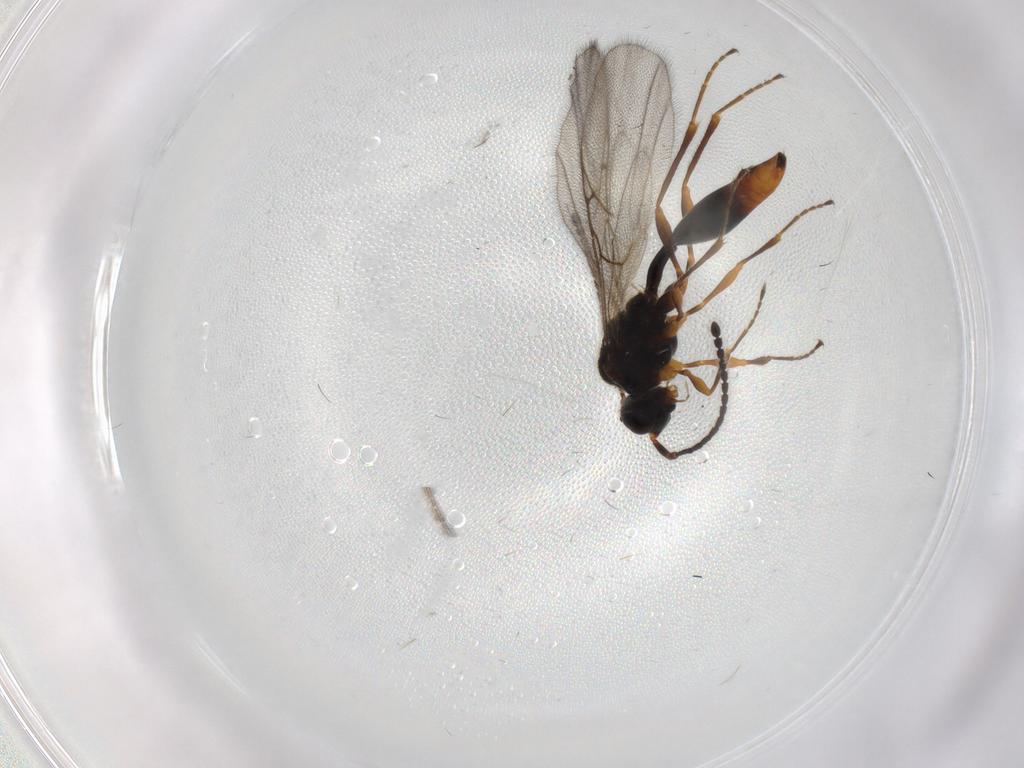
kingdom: Animalia
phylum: Arthropoda
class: Insecta
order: Hymenoptera
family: Diapriidae
